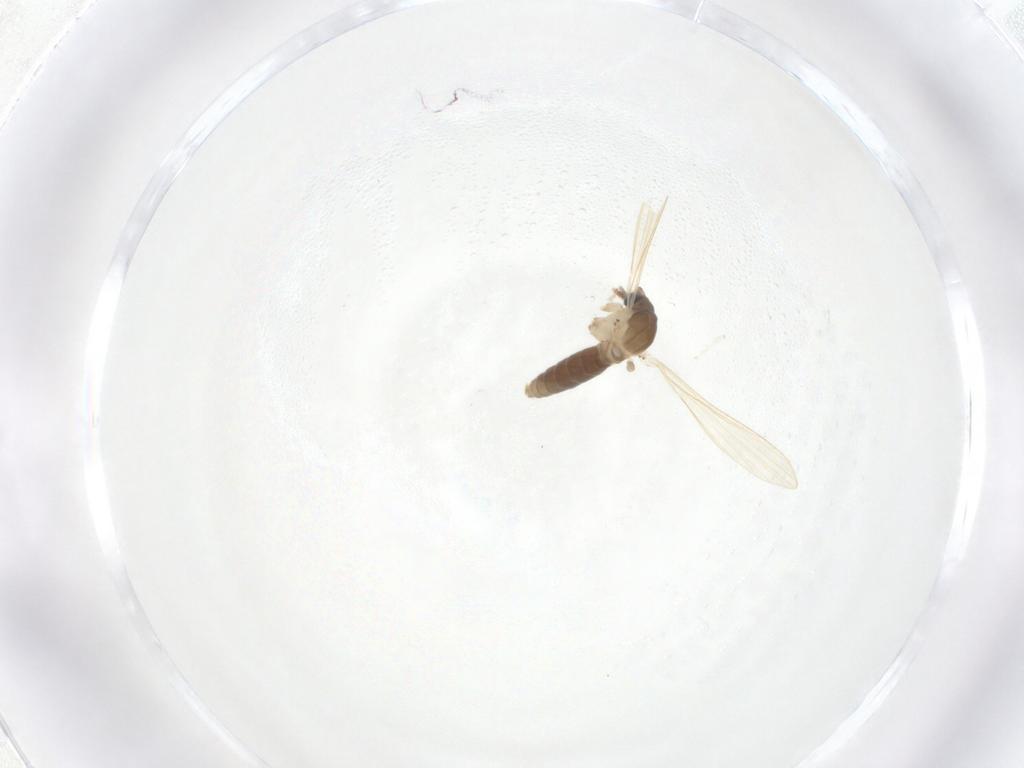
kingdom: Animalia
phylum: Arthropoda
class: Insecta
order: Diptera
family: Psychodidae
